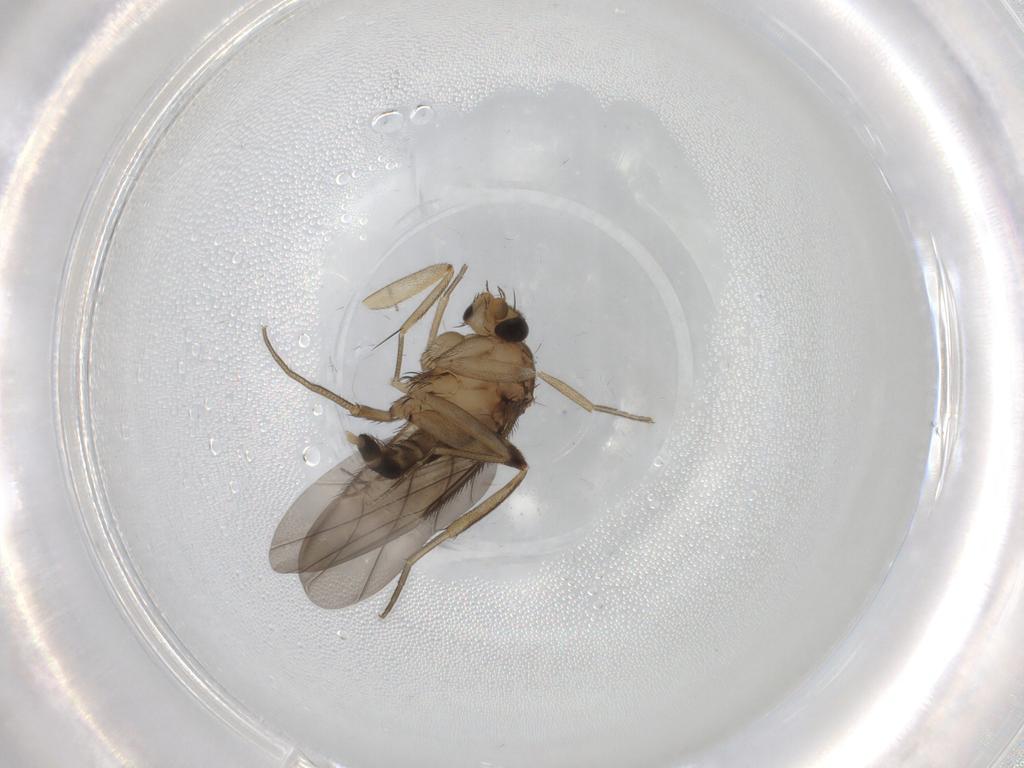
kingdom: Animalia
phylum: Arthropoda
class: Insecta
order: Diptera
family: Phoridae
